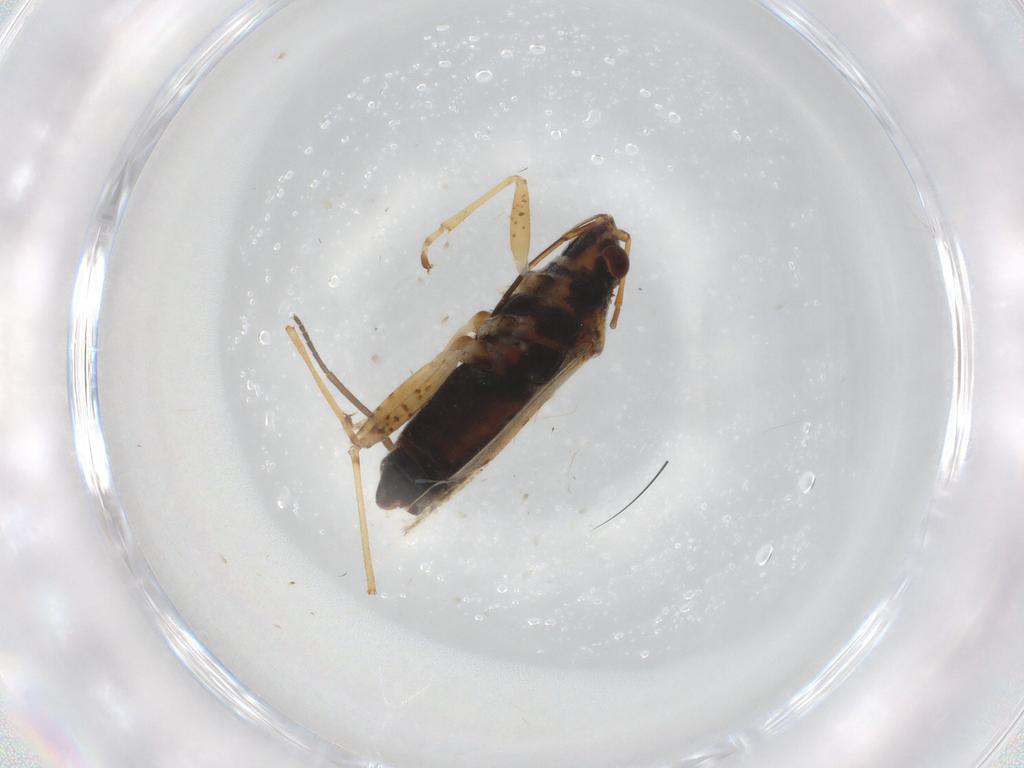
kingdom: Animalia
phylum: Arthropoda
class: Insecta
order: Hemiptera
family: Lygaeidae
